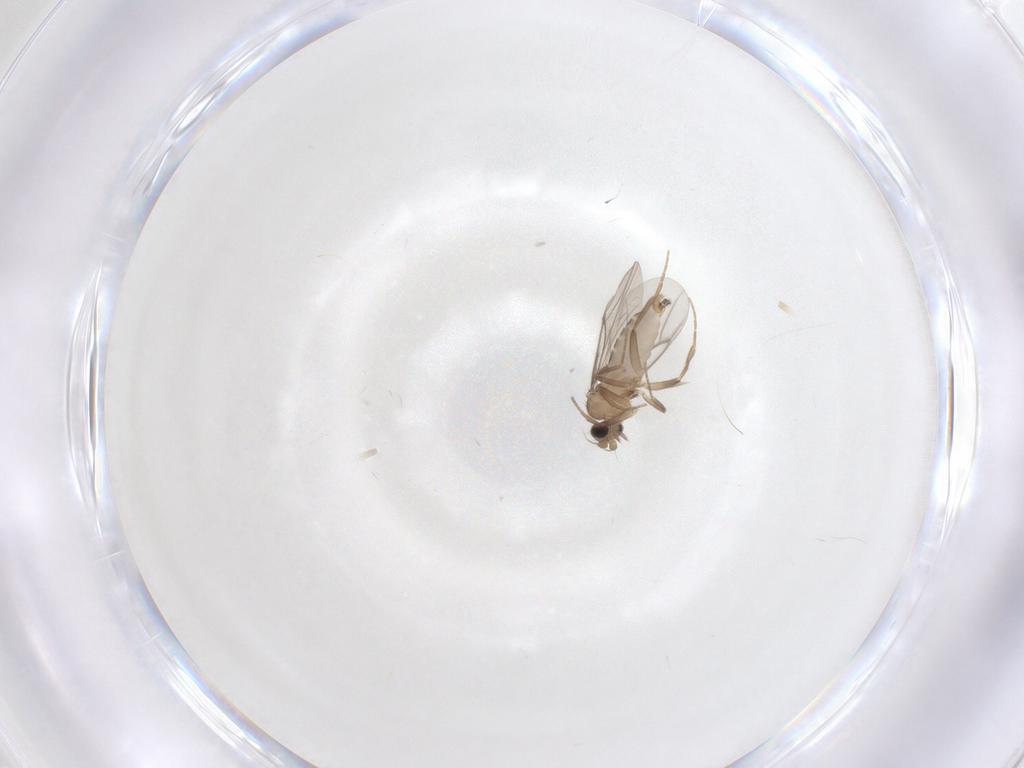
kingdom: Animalia
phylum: Arthropoda
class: Insecta
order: Diptera
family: Phoridae
